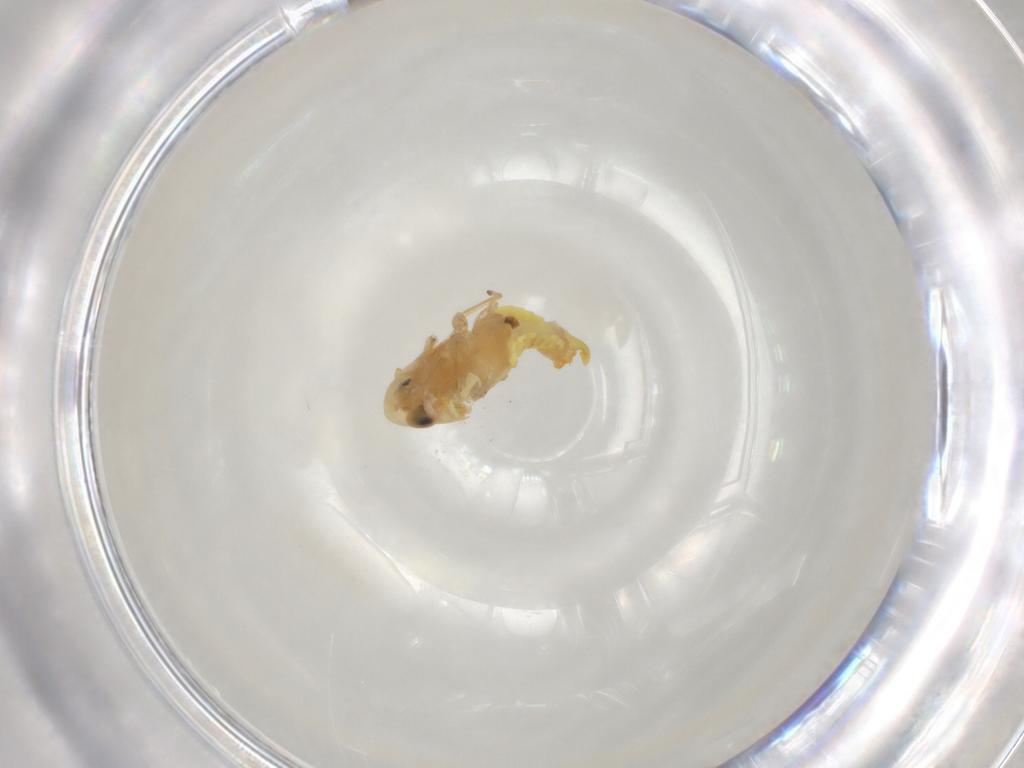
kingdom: Animalia
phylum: Arthropoda
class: Insecta
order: Hemiptera
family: Cicadellidae
